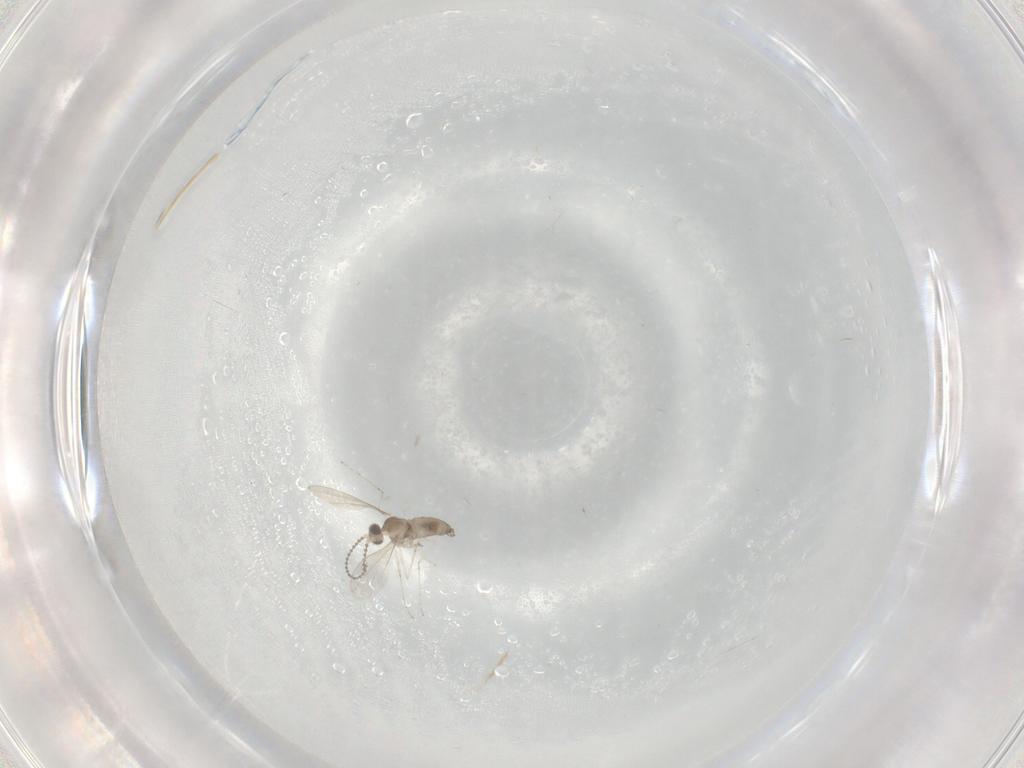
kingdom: Animalia
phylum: Arthropoda
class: Insecta
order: Diptera
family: Cecidomyiidae
